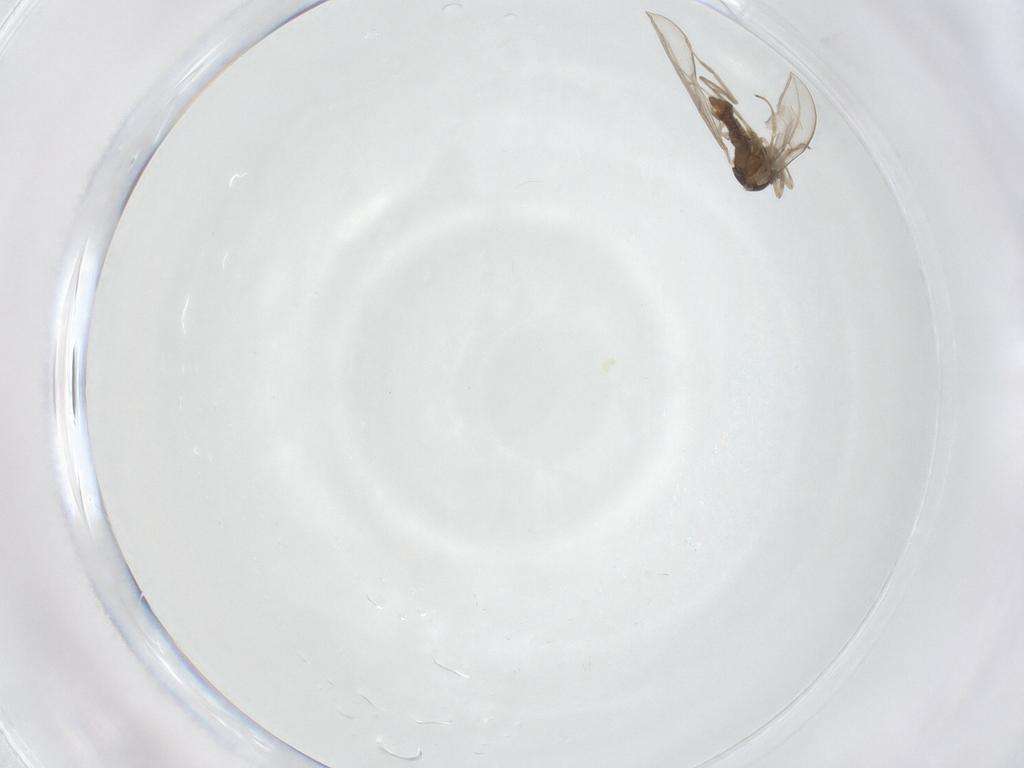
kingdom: Animalia
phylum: Arthropoda
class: Insecta
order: Diptera
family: Cecidomyiidae
